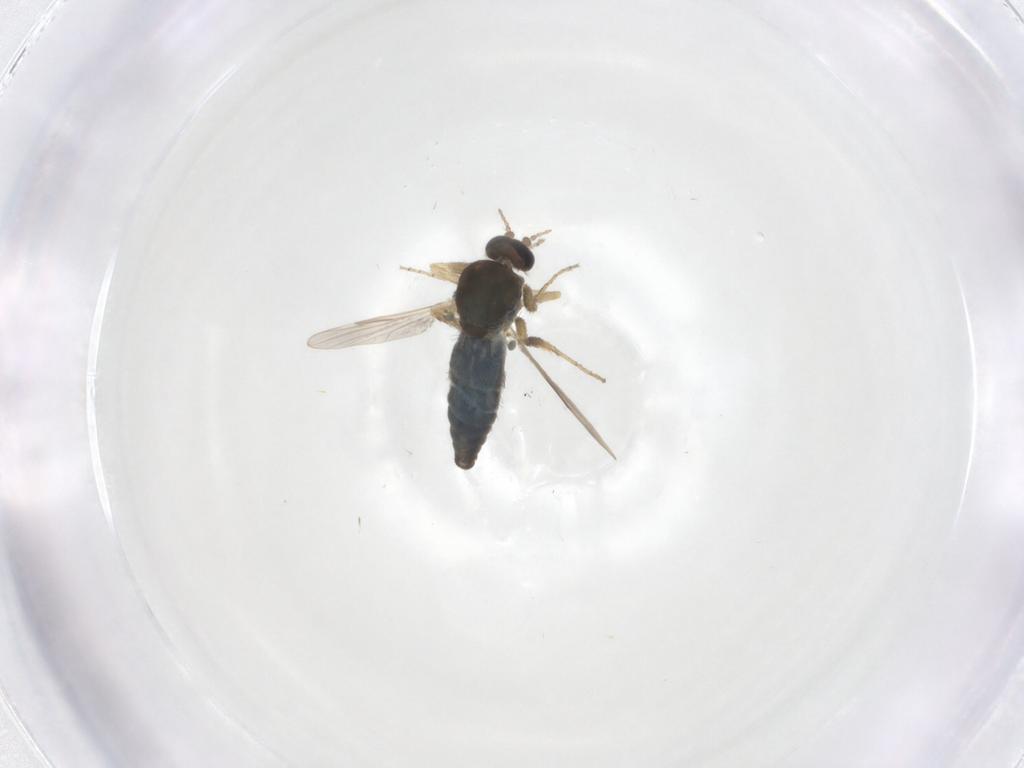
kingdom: Animalia
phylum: Arthropoda
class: Insecta
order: Diptera
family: Ceratopogonidae
